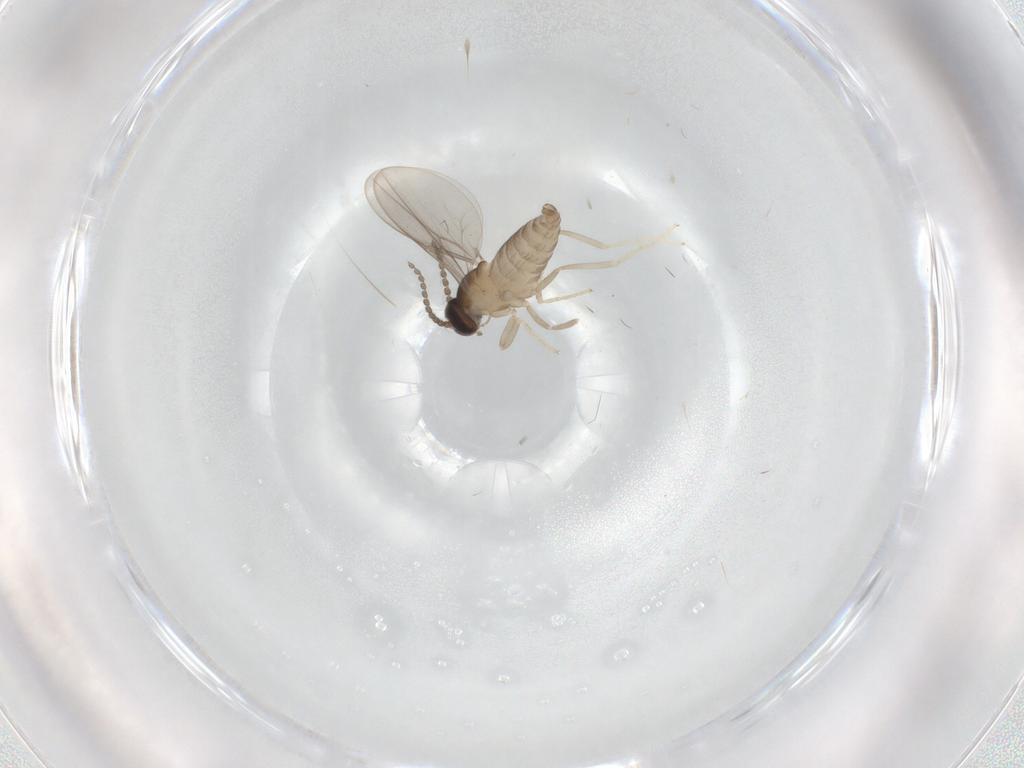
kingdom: Animalia
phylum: Arthropoda
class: Insecta
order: Diptera
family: Cecidomyiidae
